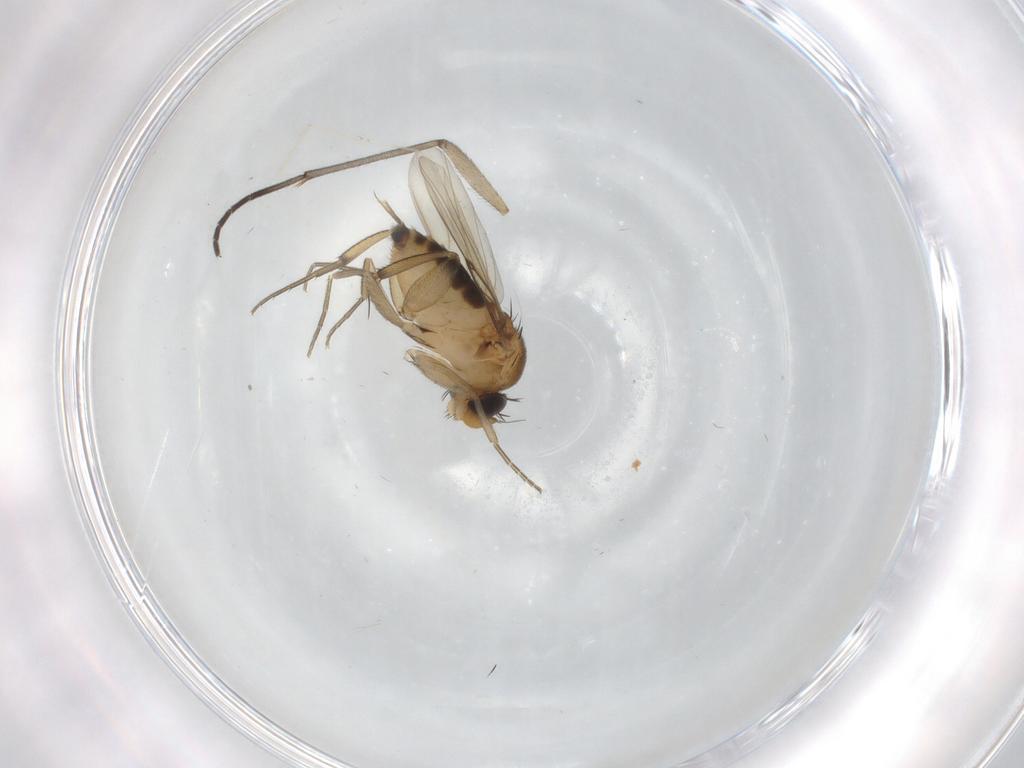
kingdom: Animalia
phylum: Arthropoda
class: Insecta
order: Diptera
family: Cecidomyiidae
